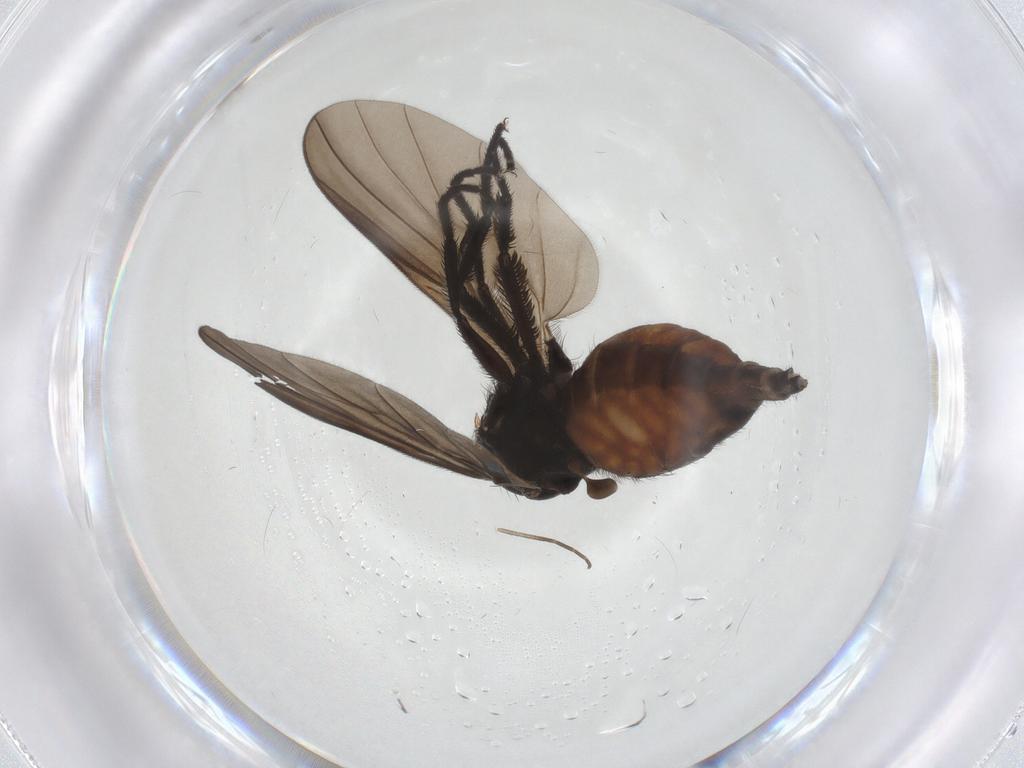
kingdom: Animalia
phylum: Arthropoda
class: Insecta
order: Diptera
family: Empididae
